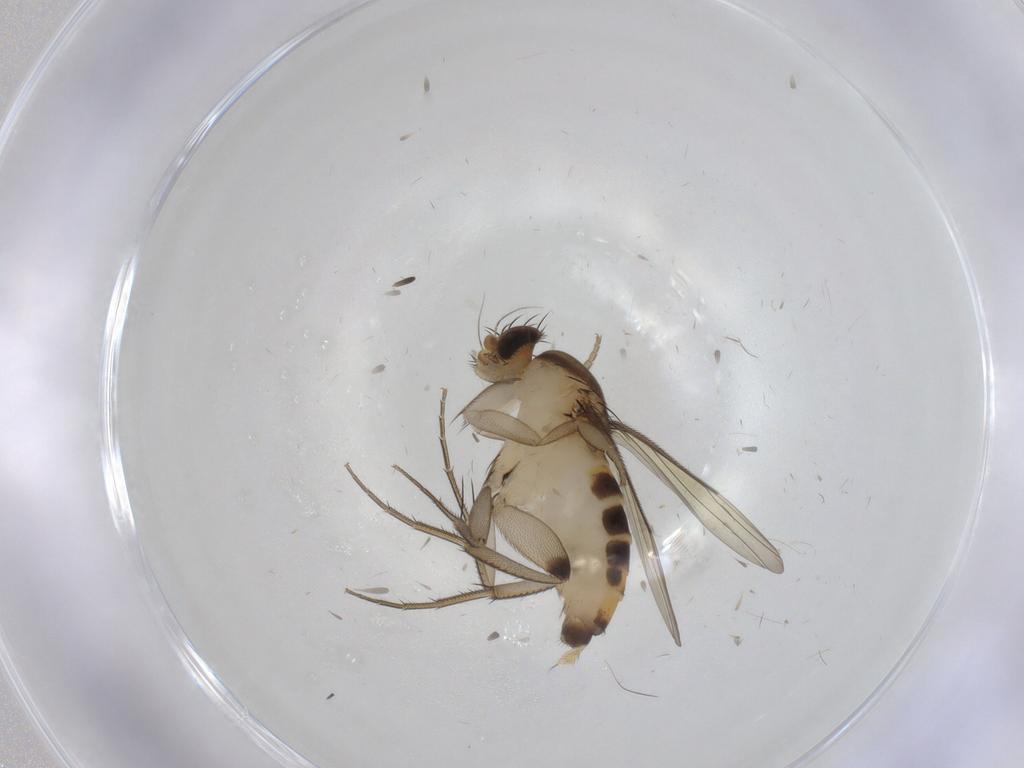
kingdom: Animalia
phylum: Arthropoda
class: Insecta
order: Diptera
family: Phoridae
